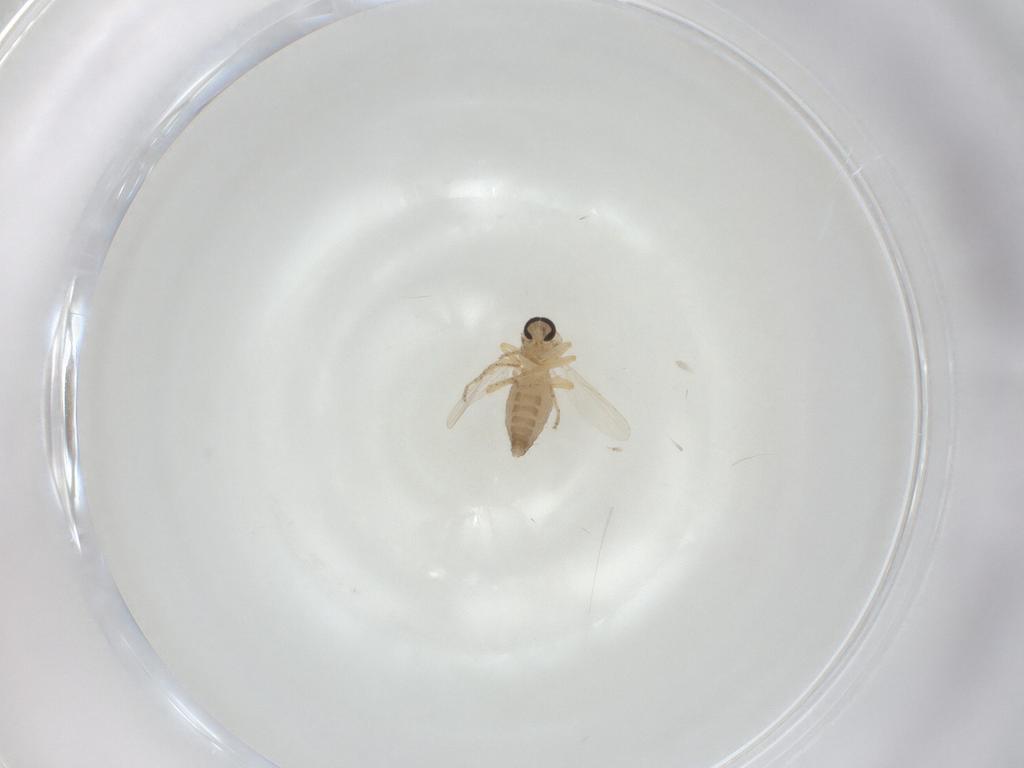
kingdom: Animalia
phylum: Arthropoda
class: Insecta
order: Diptera
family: Ceratopogonidae
